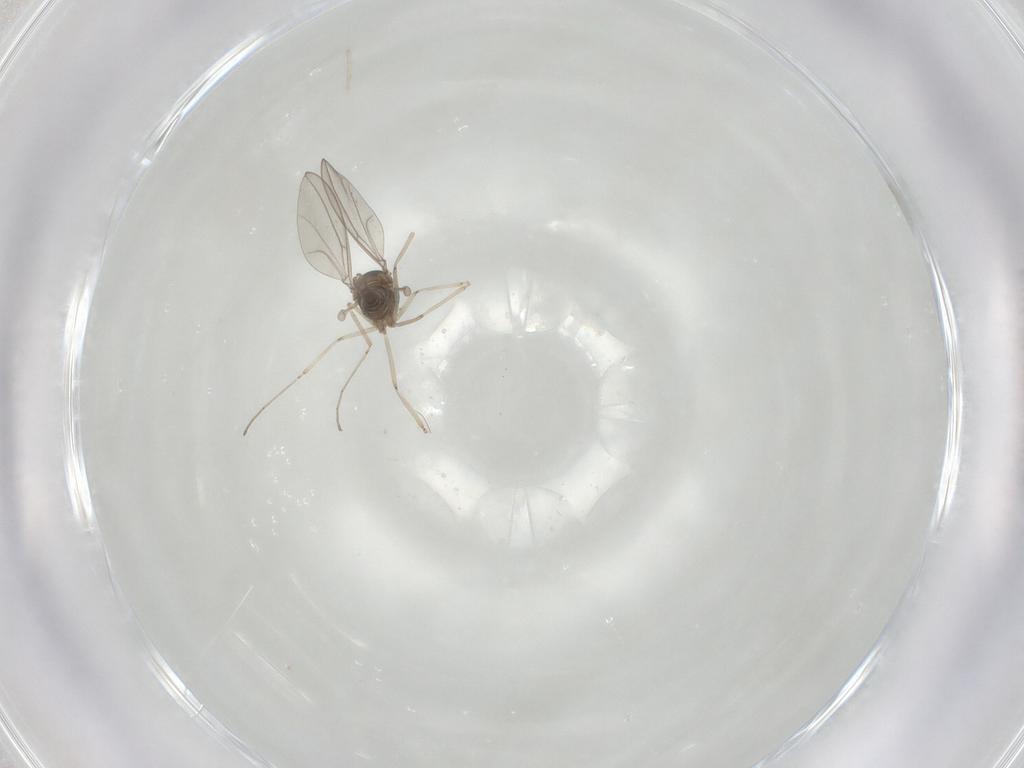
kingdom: Animalia
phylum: Arthropoda
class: Insecta
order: Diptera
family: Cecidomyiidae
